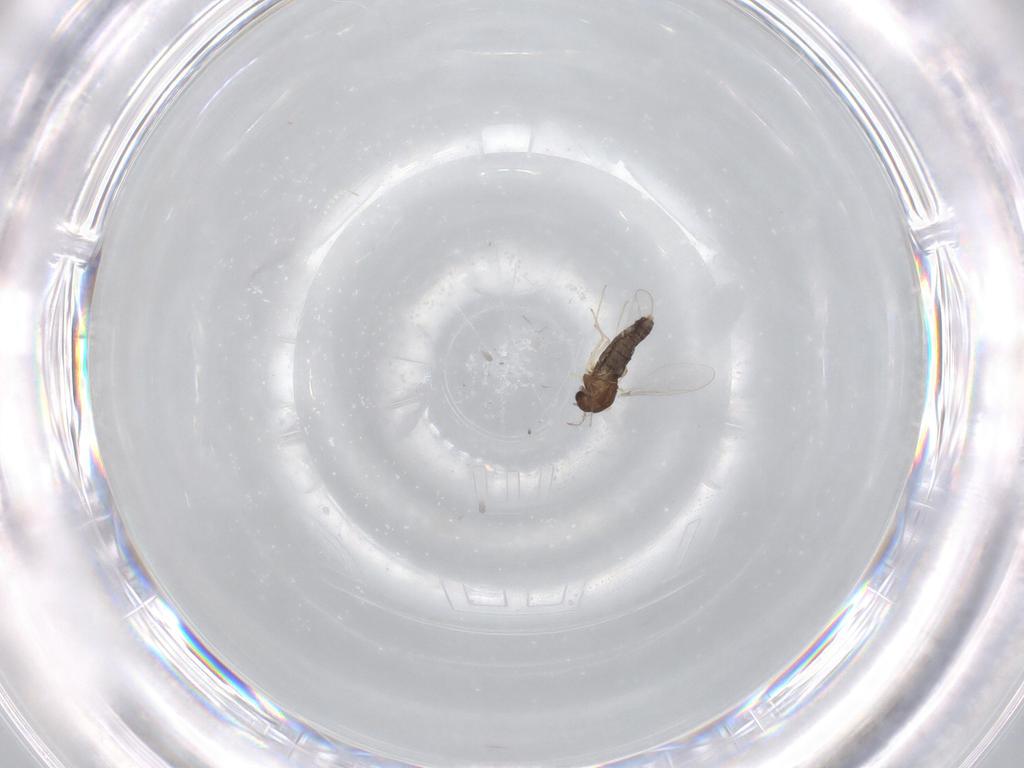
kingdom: Animalia
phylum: Arthropoda
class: Insecta
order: Diptera
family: Chironomidae
